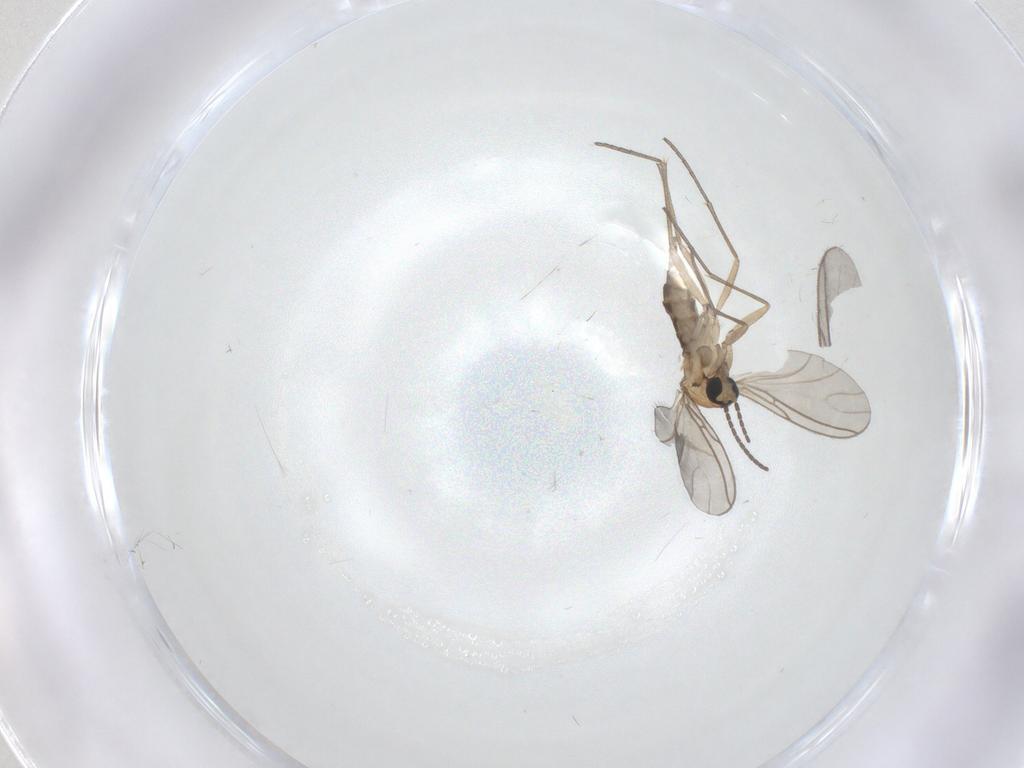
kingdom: Animalia
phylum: Arthropoda
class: Insecta
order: Diptera
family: Phoridae
